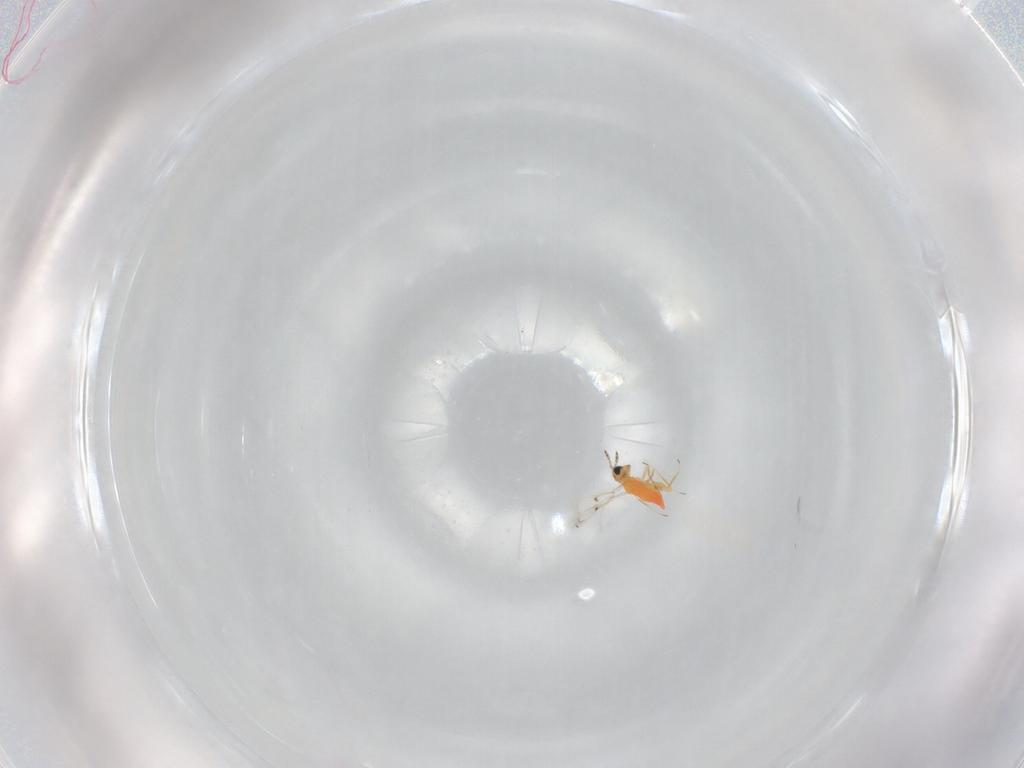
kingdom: Animalia
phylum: Arthropoda
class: Insecta
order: Hymenoptera
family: Trichogrammatidae
